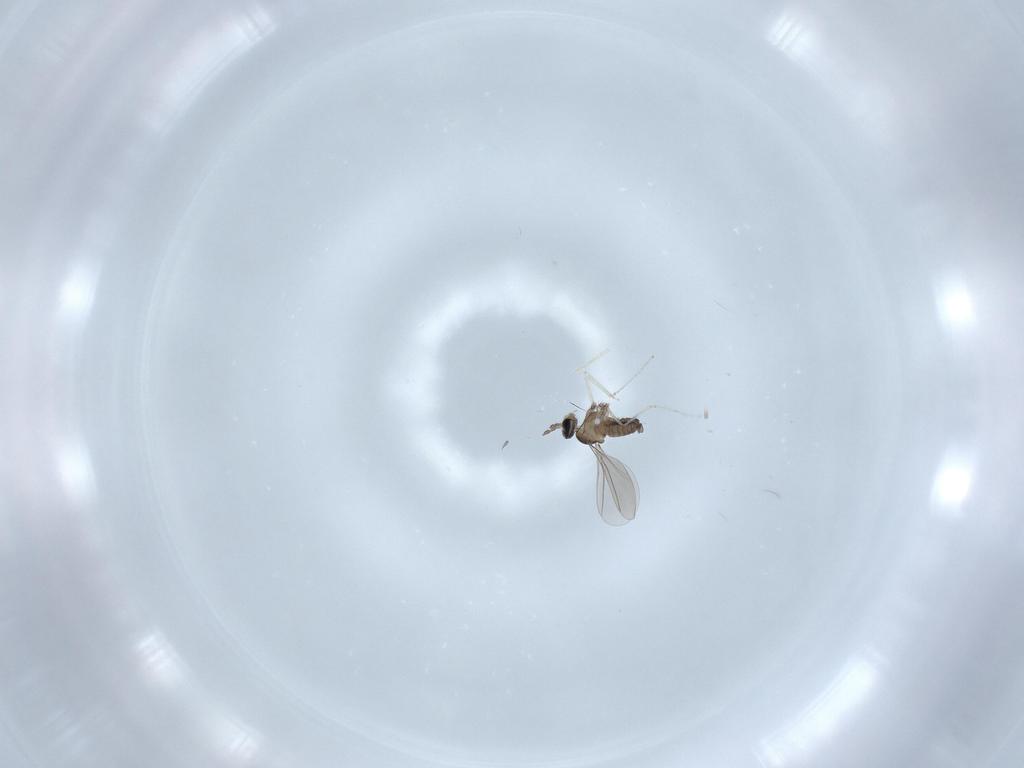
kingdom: Animalia
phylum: Arthropoda
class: Insecta
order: Diptera
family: Cecidomyiidae
